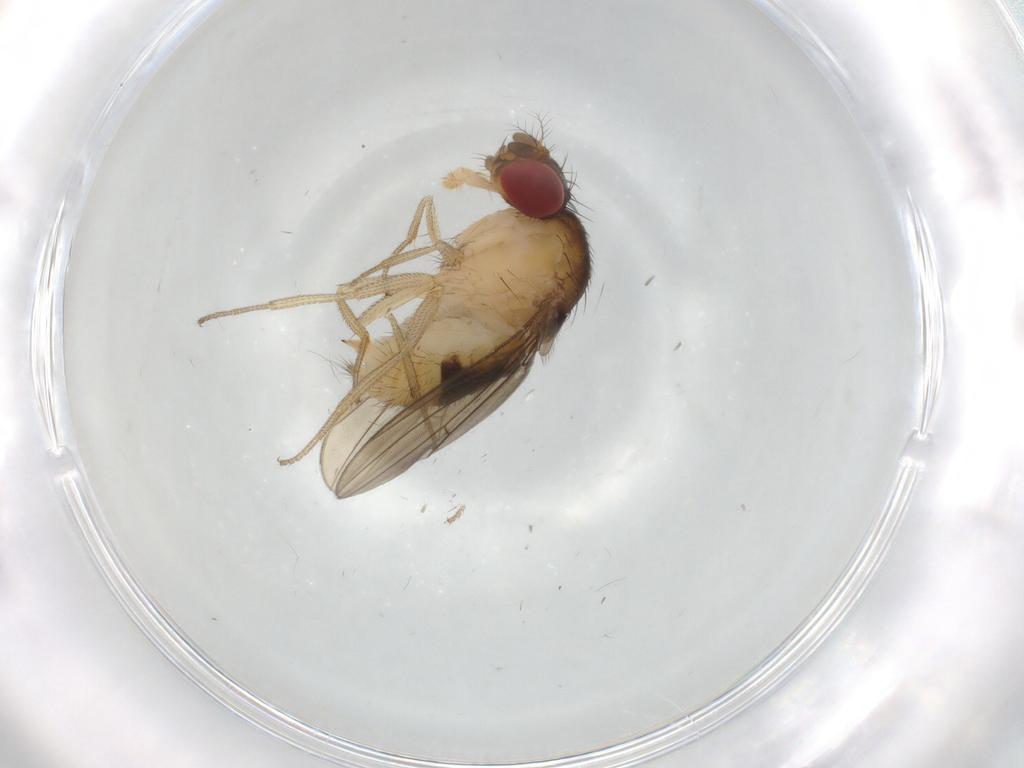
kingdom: Animalia
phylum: Arthropoda
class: Insecta
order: Diptera
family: Drosophilidae
